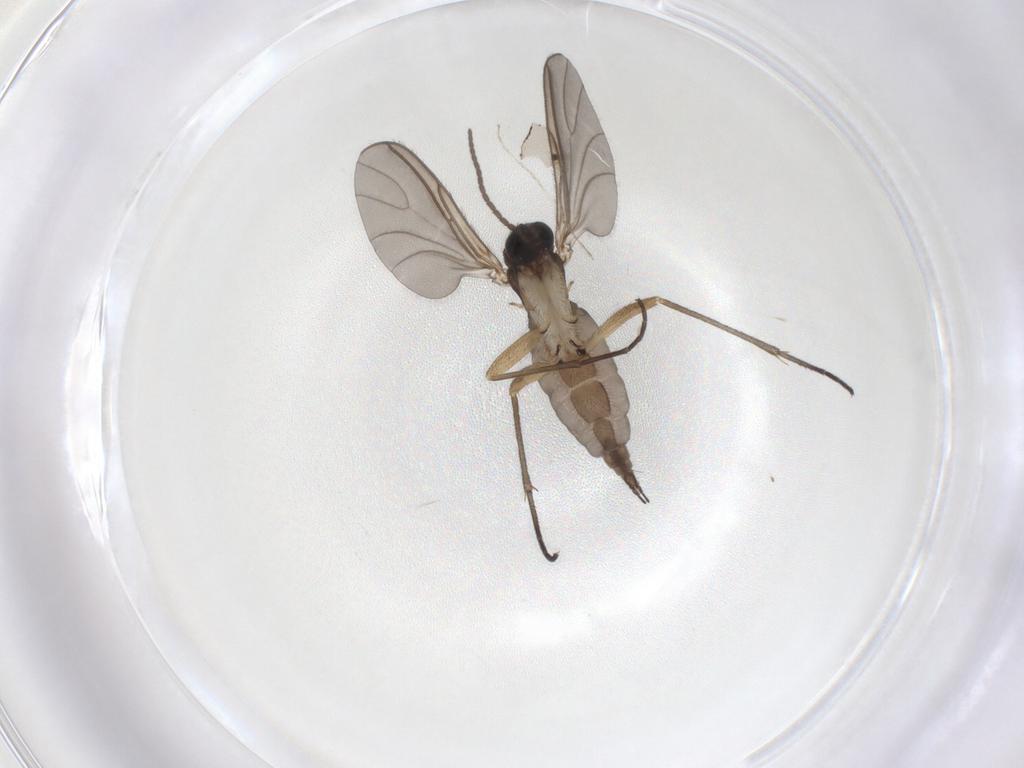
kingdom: Animalia
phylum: Arthropoda
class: Insecta
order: Diptera
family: Sciaridae
